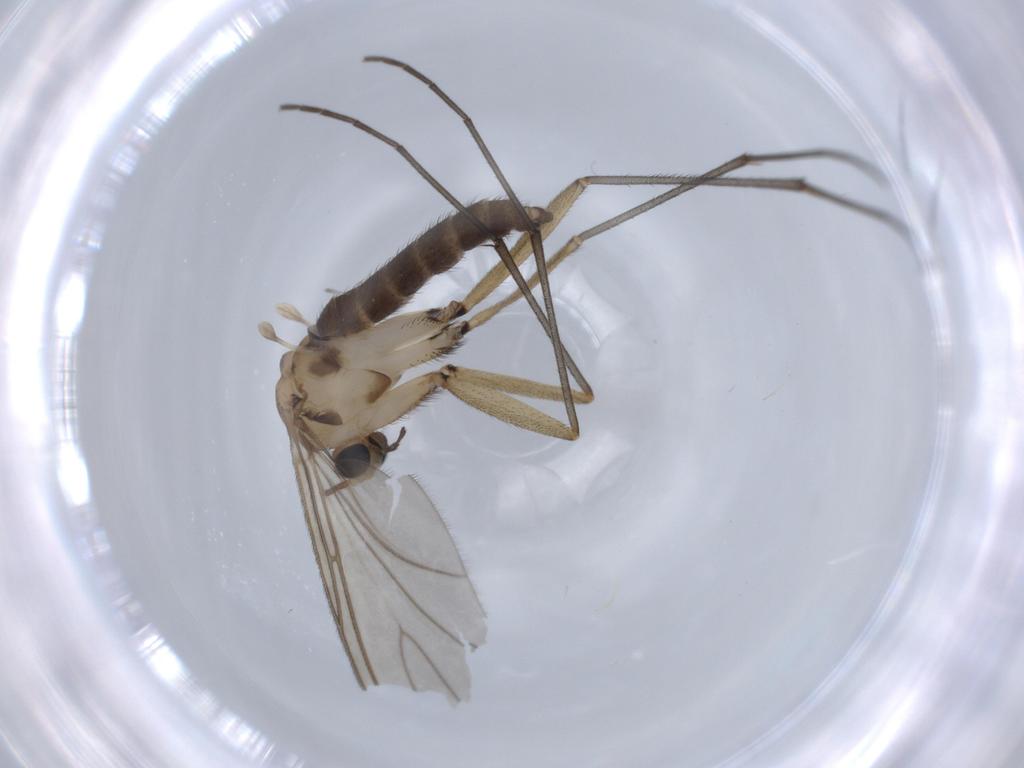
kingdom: Animalia
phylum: Arthropoda
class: Insecta
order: Diptera
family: Sciaridae
